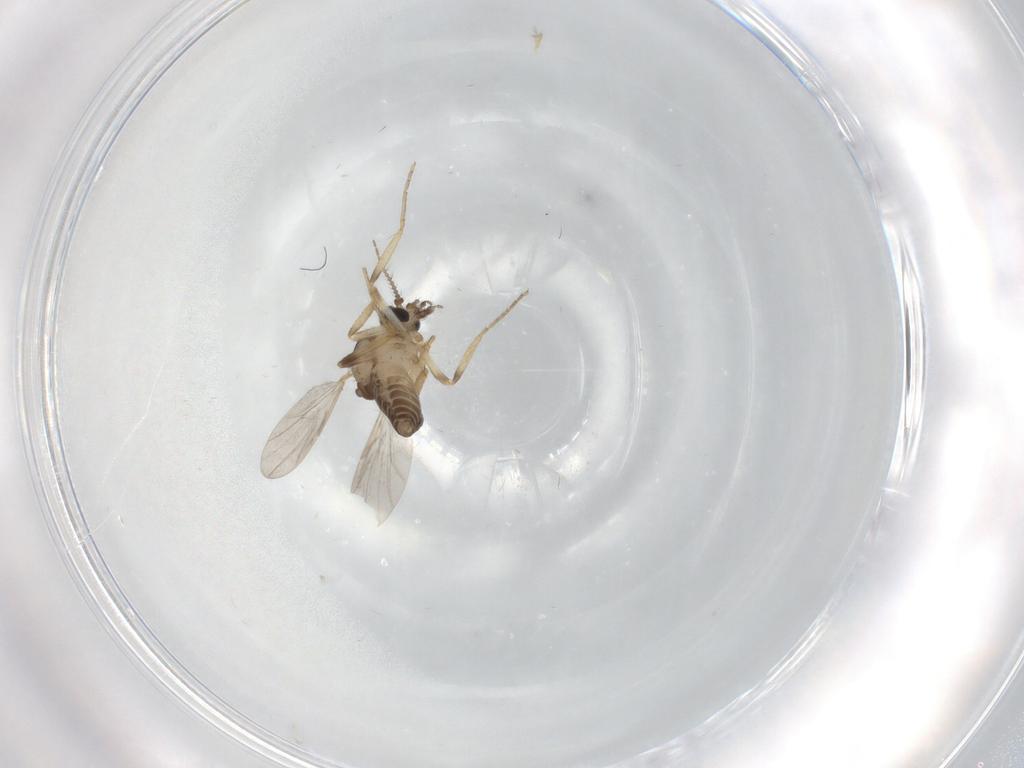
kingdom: Animalia
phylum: Arthropoda
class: Insecta
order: Diptera
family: Ceratopogonidae
